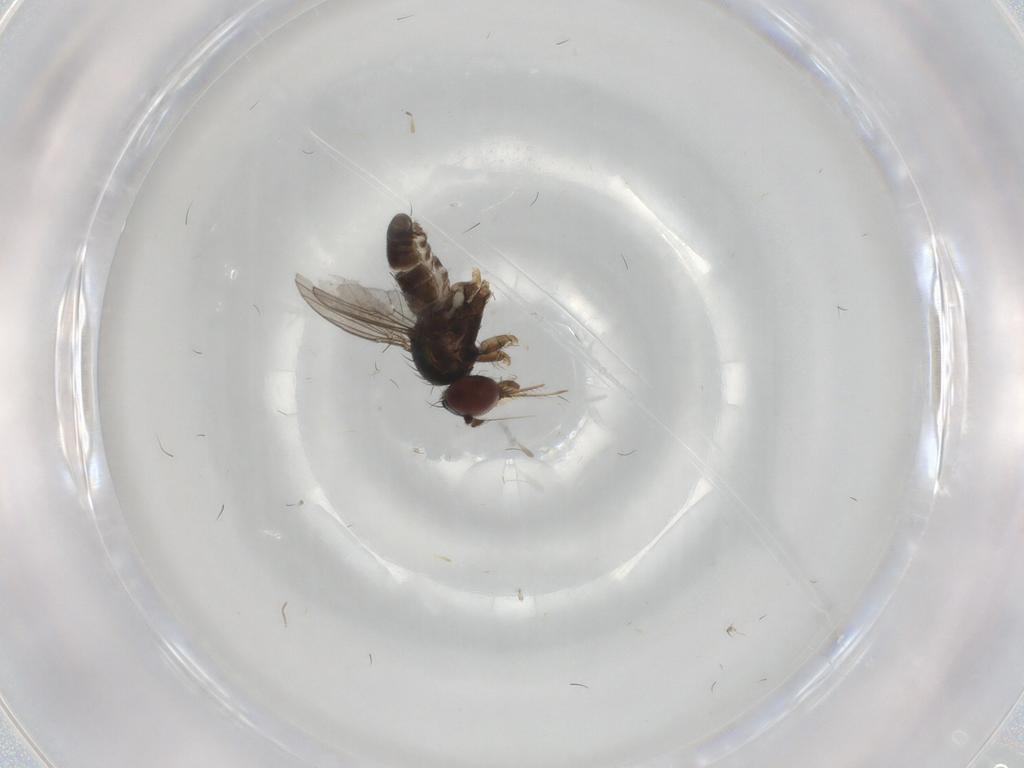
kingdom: Animalia
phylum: Arthropoda
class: Insecta
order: Diptera
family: Dolichopodidae
